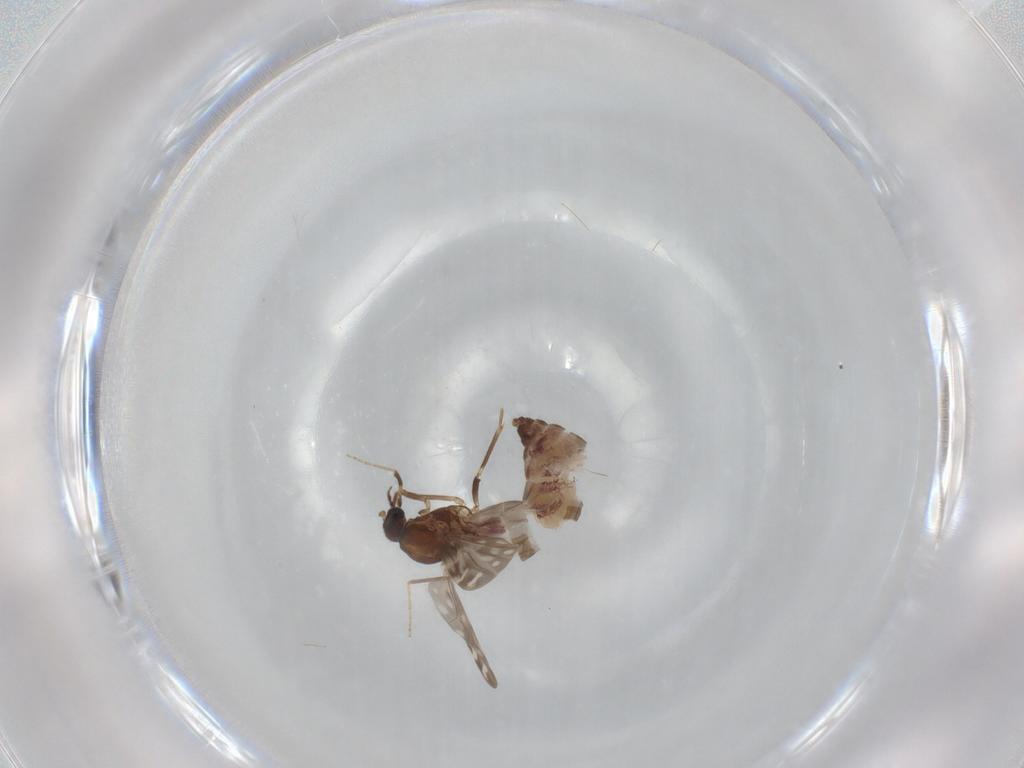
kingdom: Animalia
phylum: Arthropoda
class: Insecta
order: Diptera
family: Ceratopogonidae
